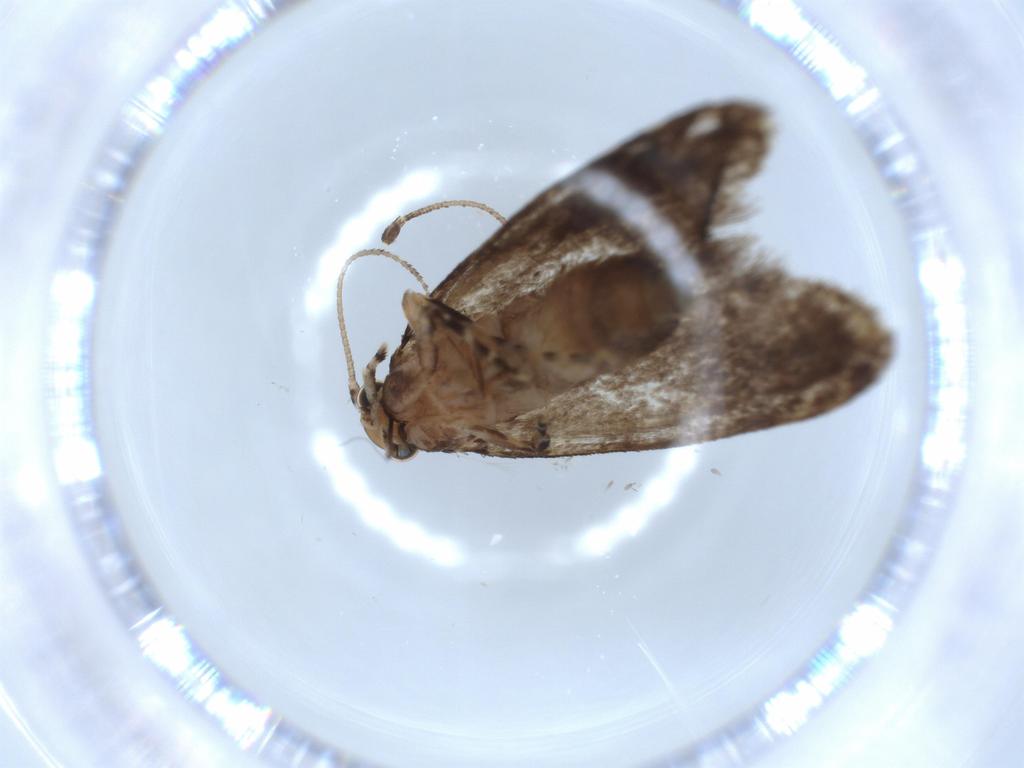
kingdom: Animalia
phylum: Arthropoda
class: Insecta
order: Lepidoptera
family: Tineidae
